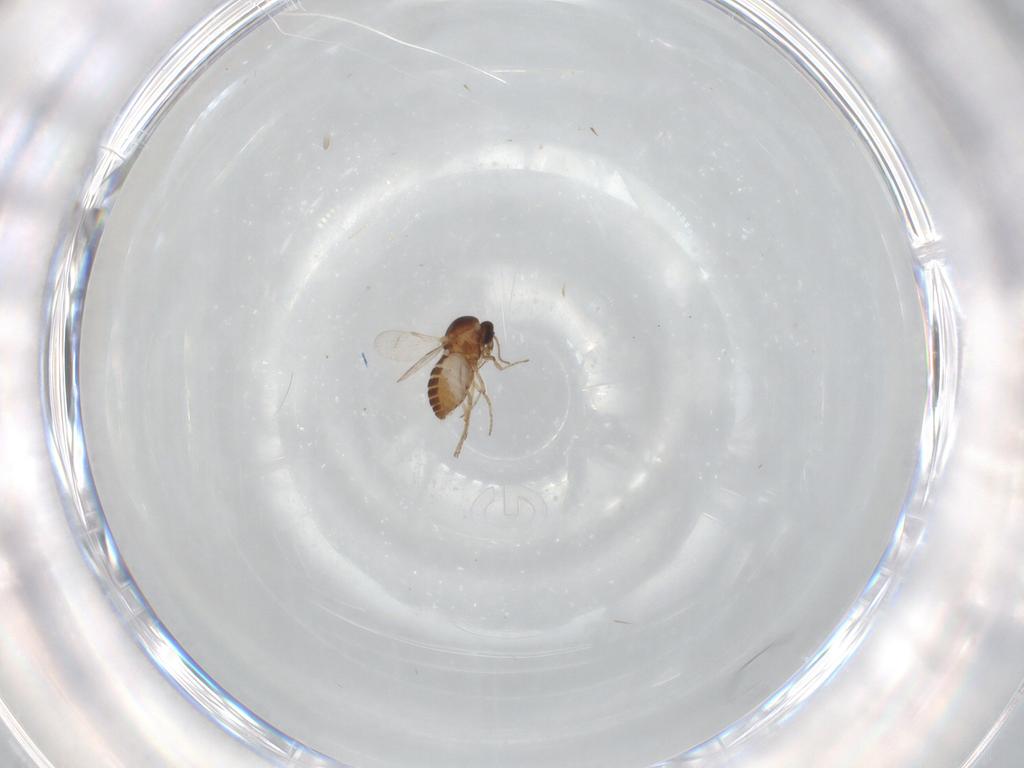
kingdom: Animalia
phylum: Arthropoda
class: Insecta
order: Diptera
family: Ceratopogonidae
